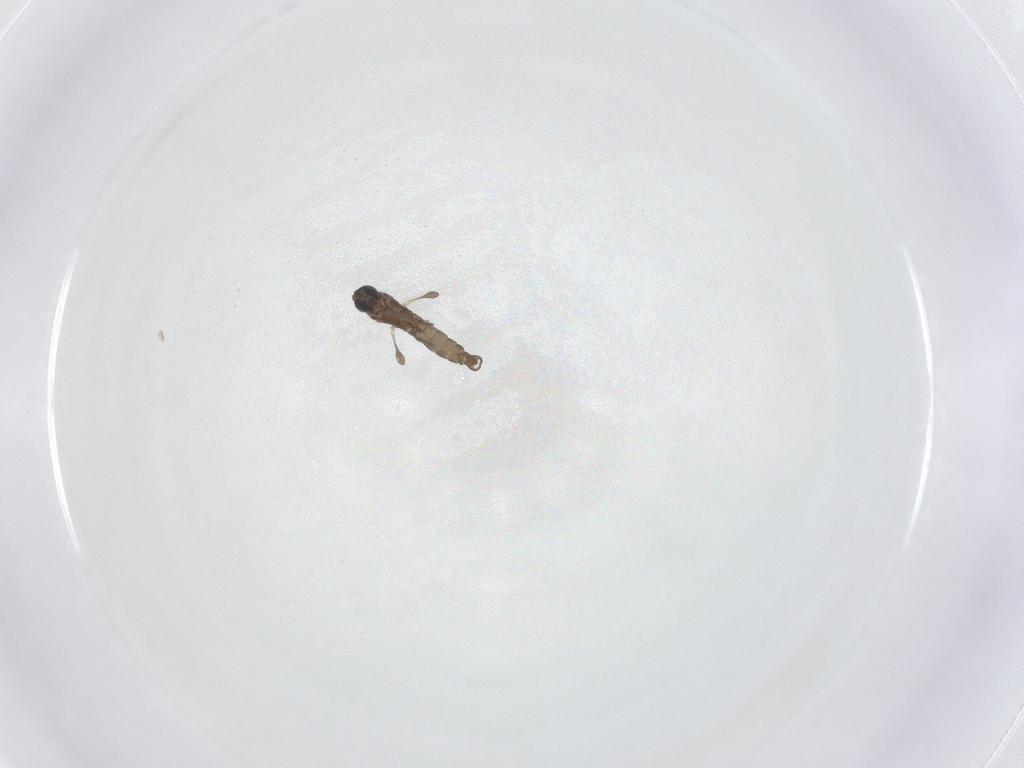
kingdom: Animalia
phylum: Arthropoda
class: Insecta
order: Diptera
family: Sciaridae
